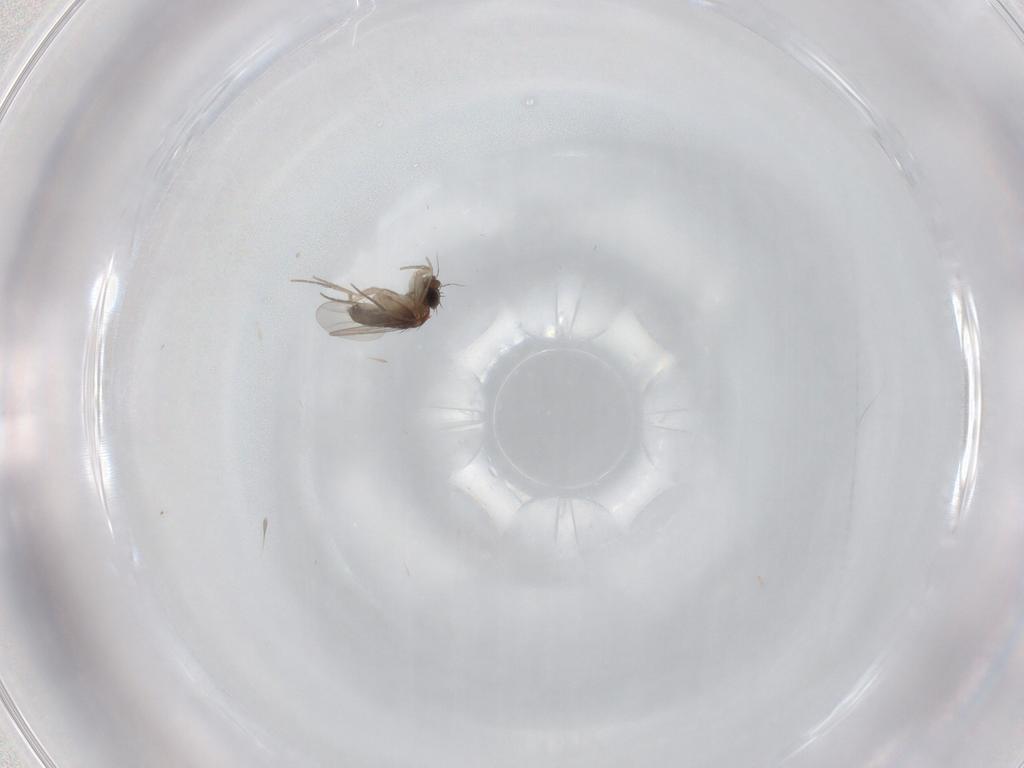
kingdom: Animalia
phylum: Arthropoda
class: Insecta
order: Diptera
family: Phoridae
